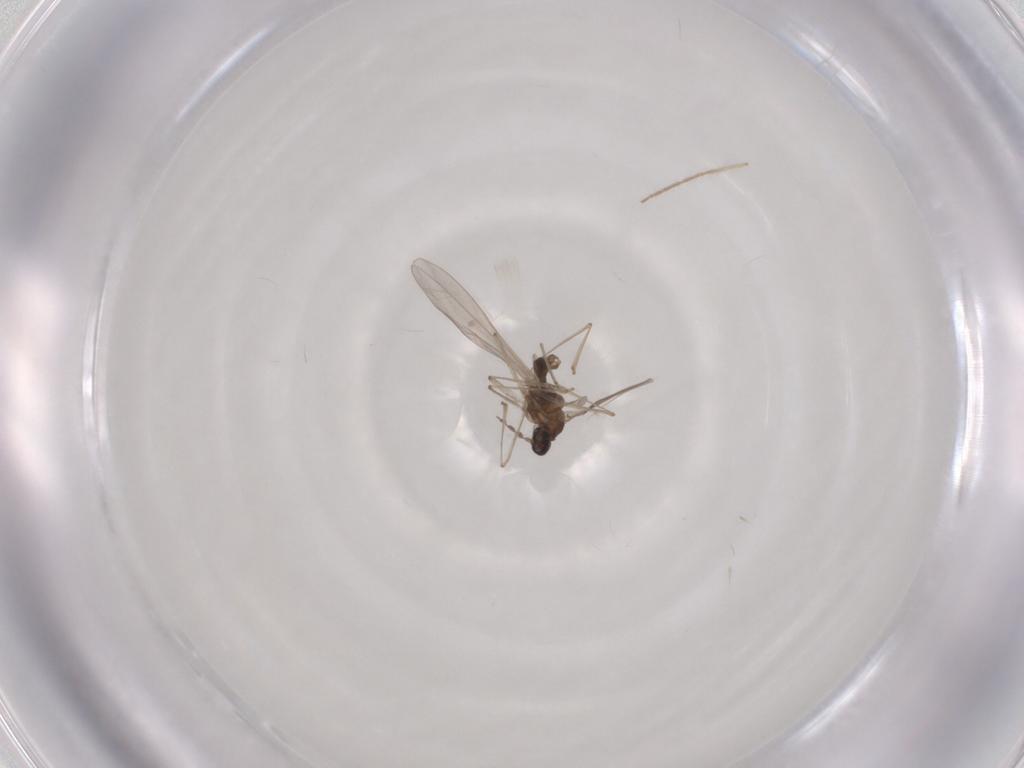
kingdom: Animalia
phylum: Arthropoda
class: Insecta
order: Diptera
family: Cecidomyiidae
